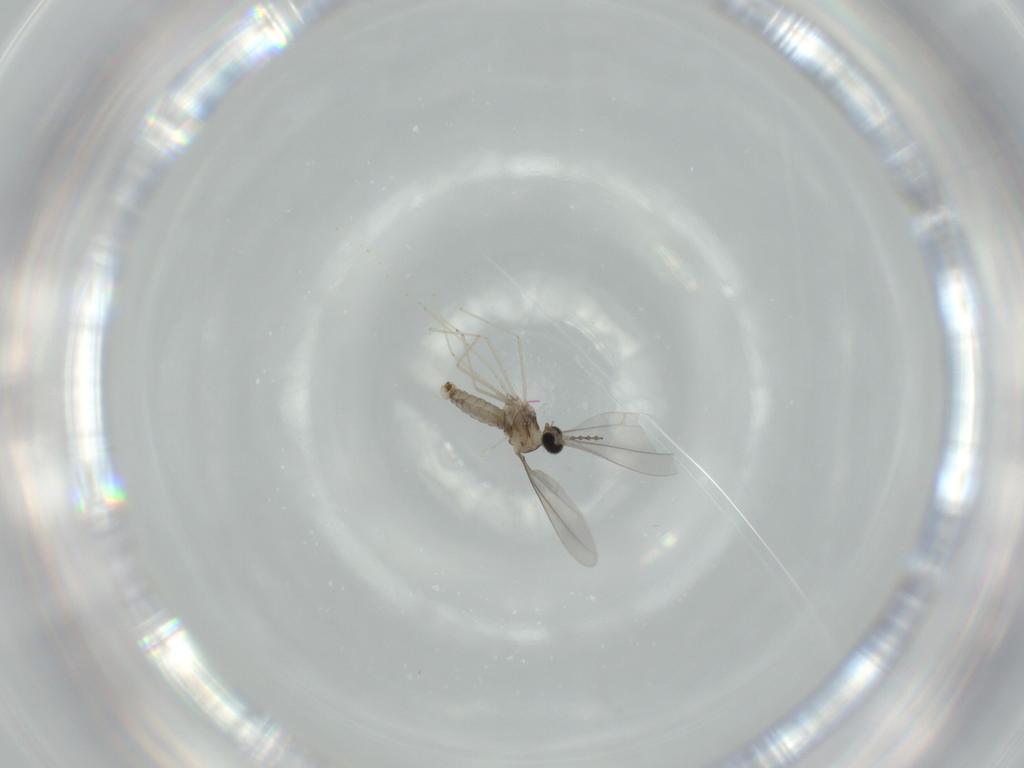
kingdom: Animalia
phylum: Arthropoda
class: Insecta
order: Diptera
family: Cecidomyiidae
